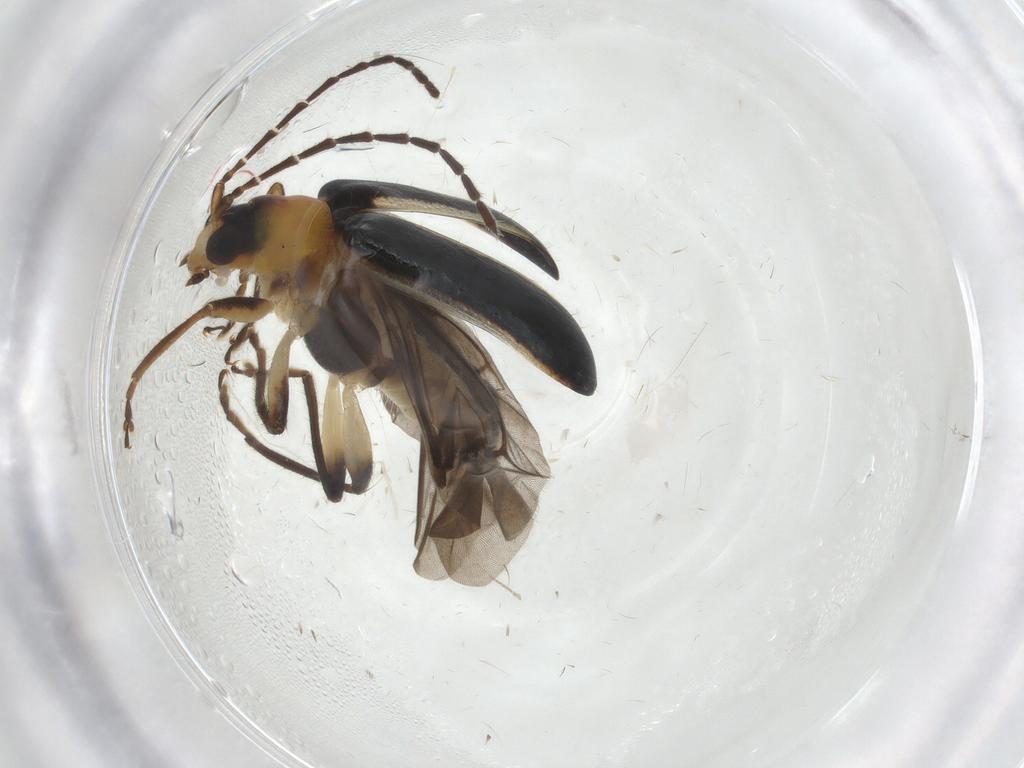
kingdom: Animalia
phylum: Arthropoda
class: Insecta
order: Coleoptera
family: Chrysomelidae
